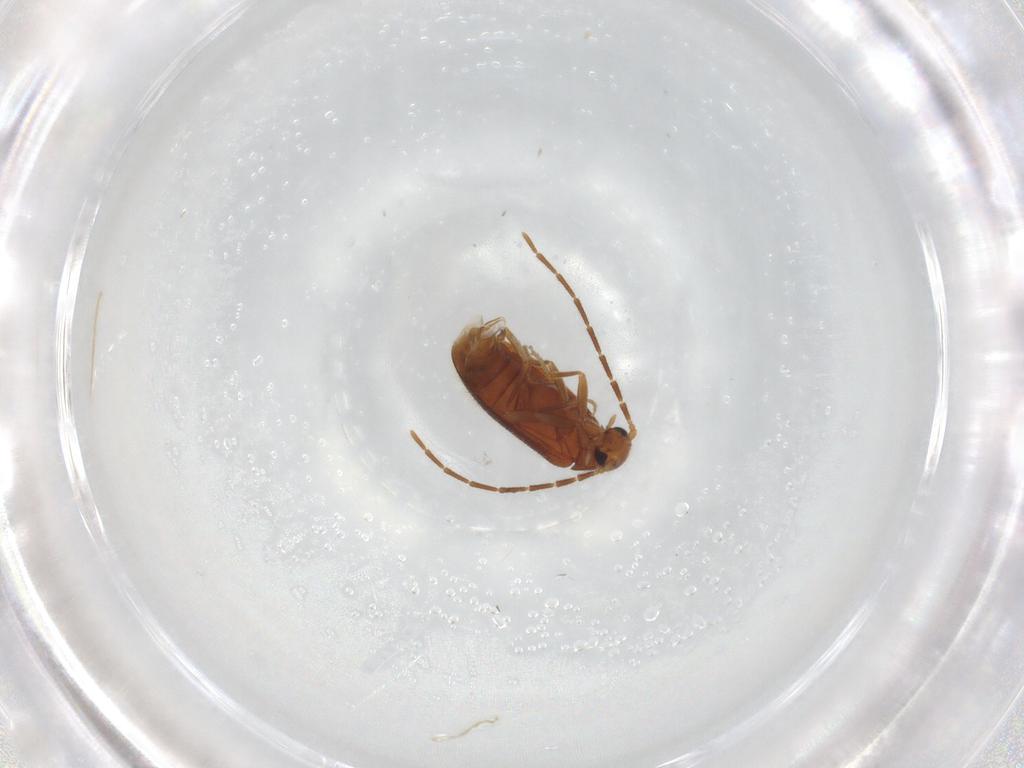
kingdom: Animalia
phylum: Arthropoda
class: Insecta
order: Coleoptera
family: Scraptiidae
